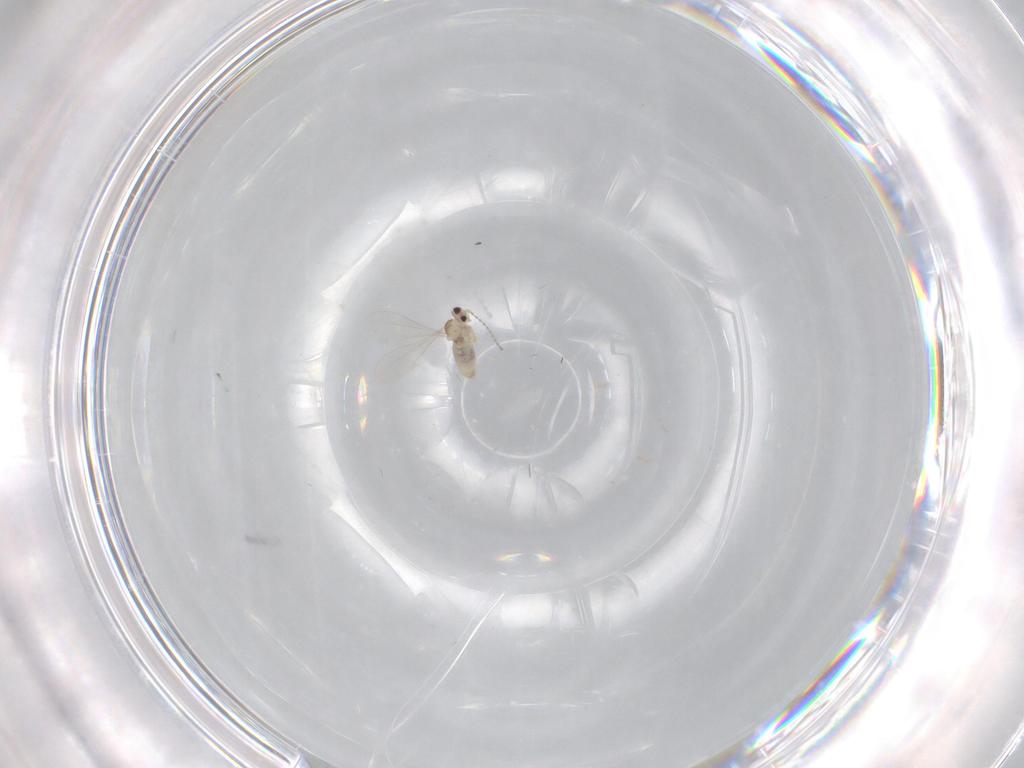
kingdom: Animalia
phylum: Arthropoda
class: Insecta
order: Diptera
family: Cecidomyiidae
